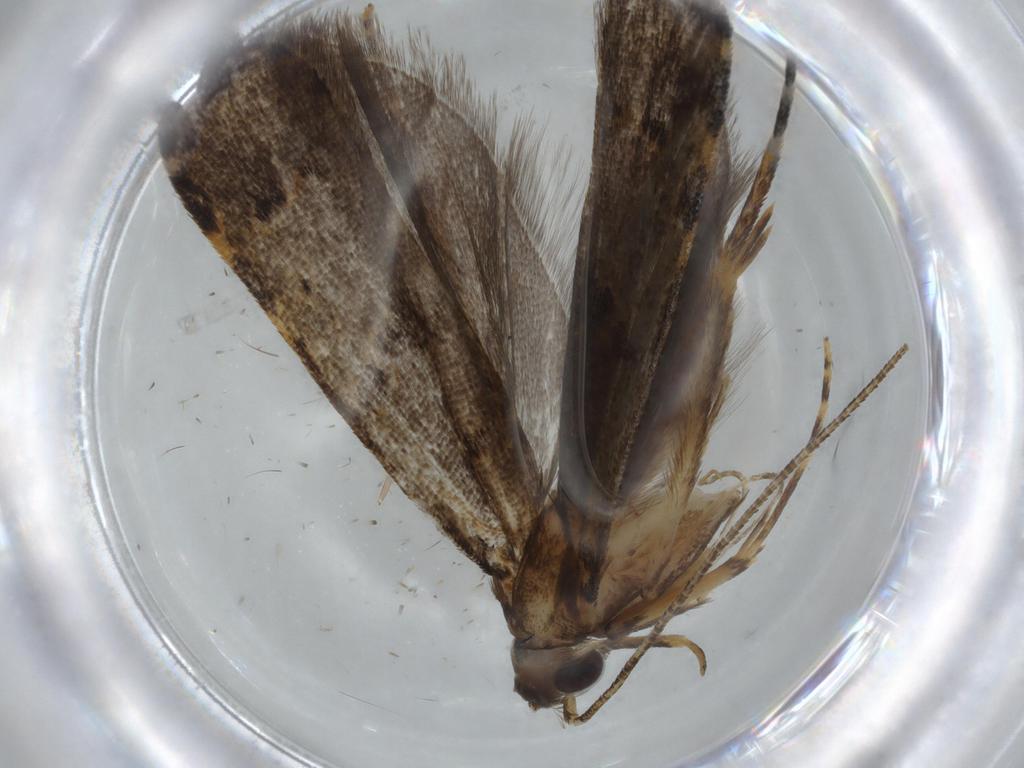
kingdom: Animalia
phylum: Arthropoda
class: Insecta
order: Lepidoptera
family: Autostichidae
